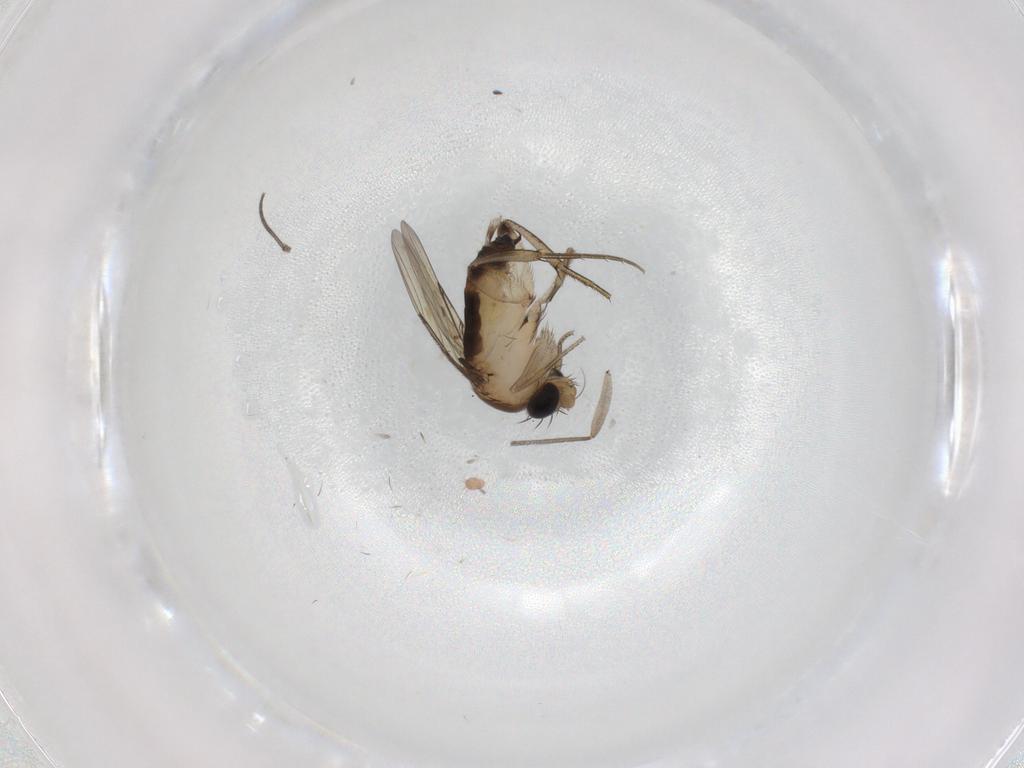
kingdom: Animalia
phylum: Arthropoda
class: Insecta
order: Diptera
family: Phoridae
